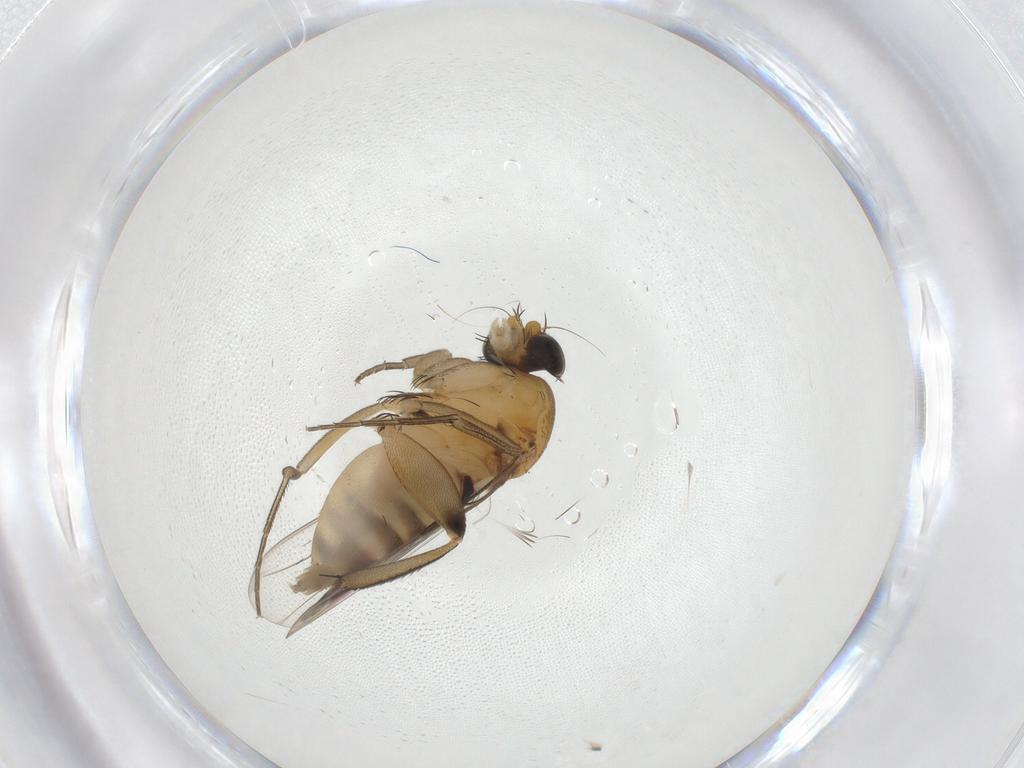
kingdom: Animalia
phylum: Arthropoda
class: Insecta
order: Diptera
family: Phoridae
